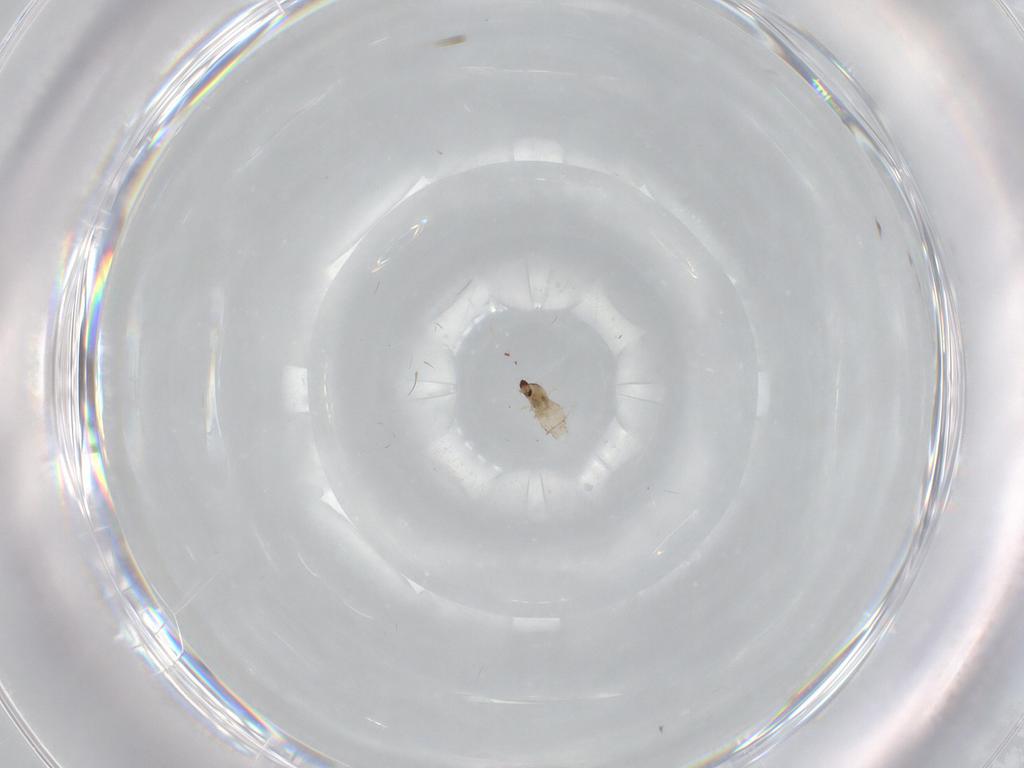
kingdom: Animalia
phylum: Arthropoda
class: Insecta
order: Diptera
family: Cecidomyiidae
